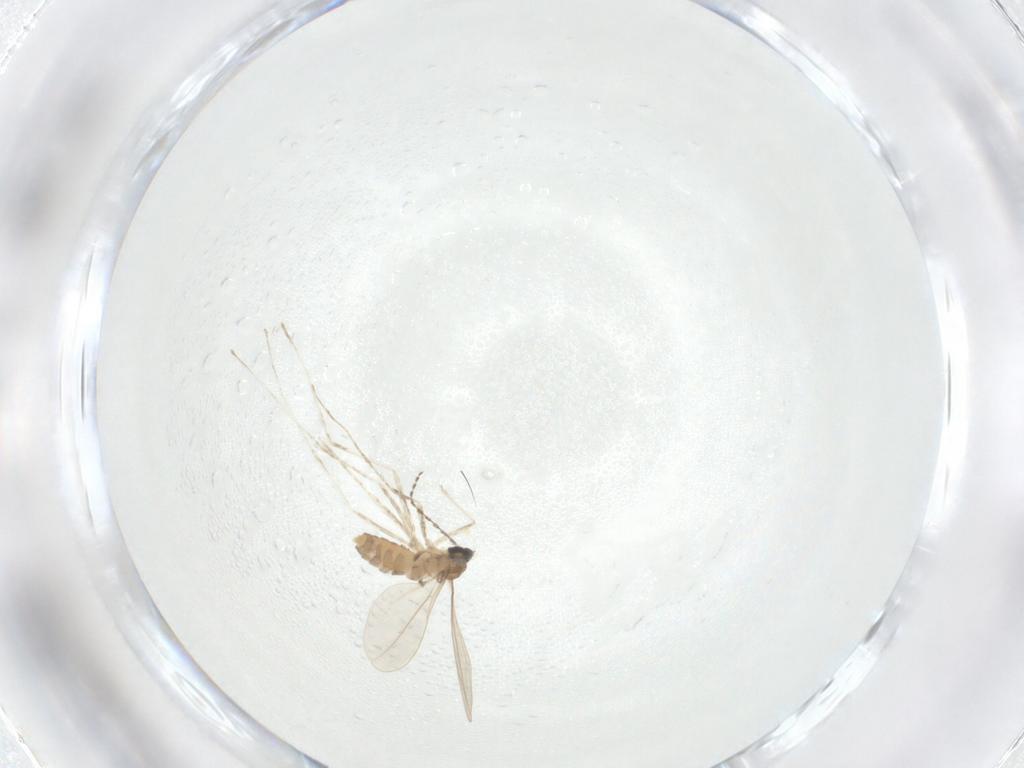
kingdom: Animalia
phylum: Arthropoda
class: Insecta
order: Diptera
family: Cecidomyiidae
